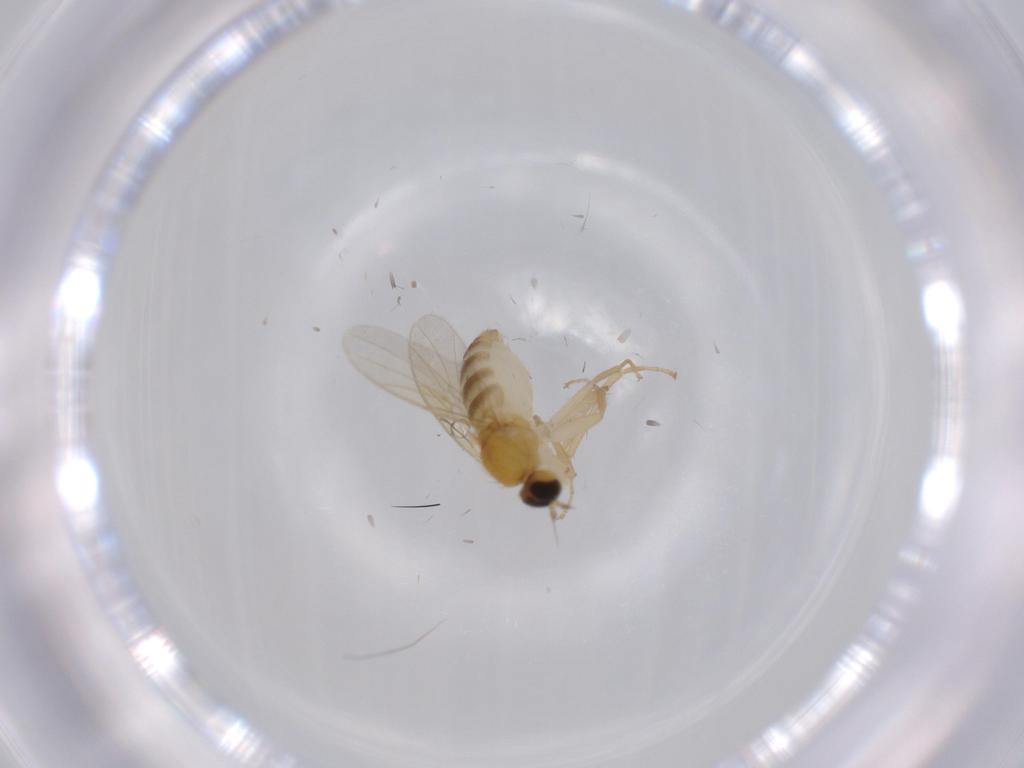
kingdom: Animalia
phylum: Arthropoda
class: Insecta
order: Diptera
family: Hybotidae
